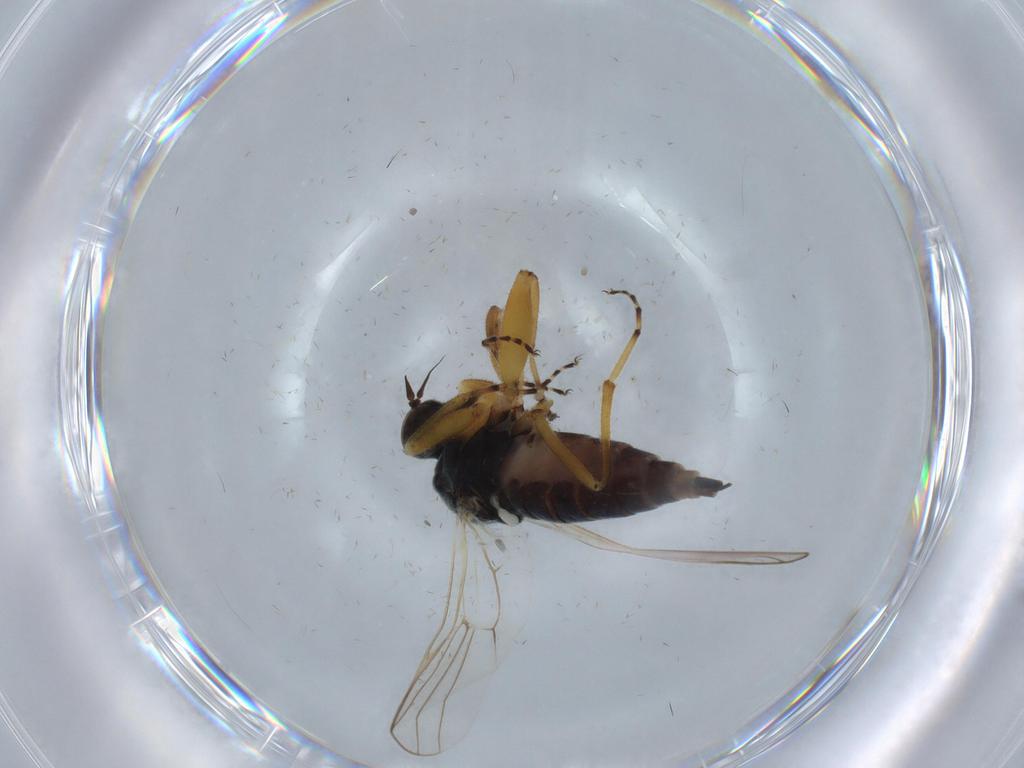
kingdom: Animalia
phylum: Arthropoda
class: Insecta
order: Diptera
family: Hybotidae
